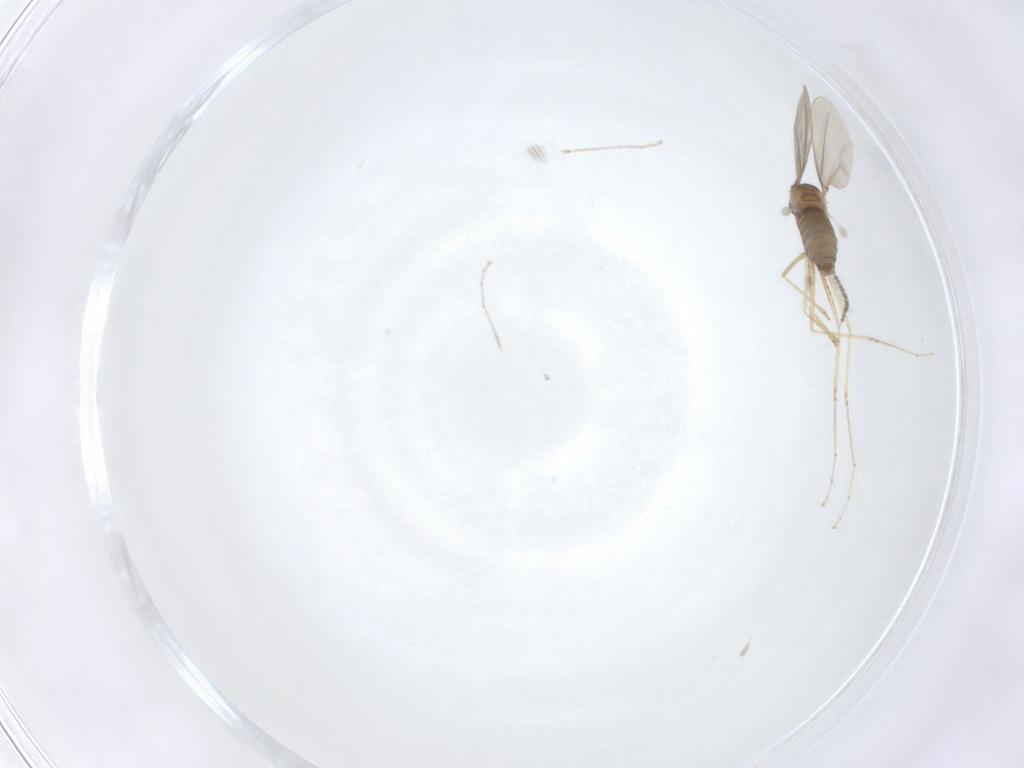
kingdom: Animalia
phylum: Arthropoda
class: Insecta
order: Diptera
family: Cecidomyiidae
